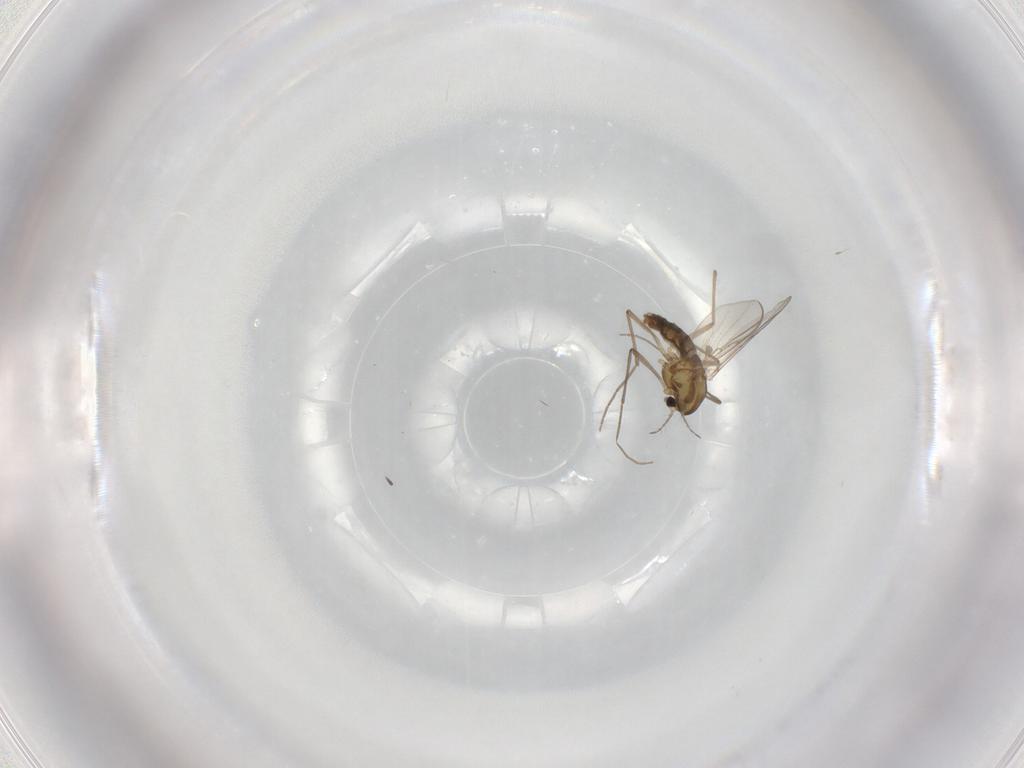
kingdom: Animalia
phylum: Arthropoda
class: Insecta
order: Diptera
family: Chironomidae
